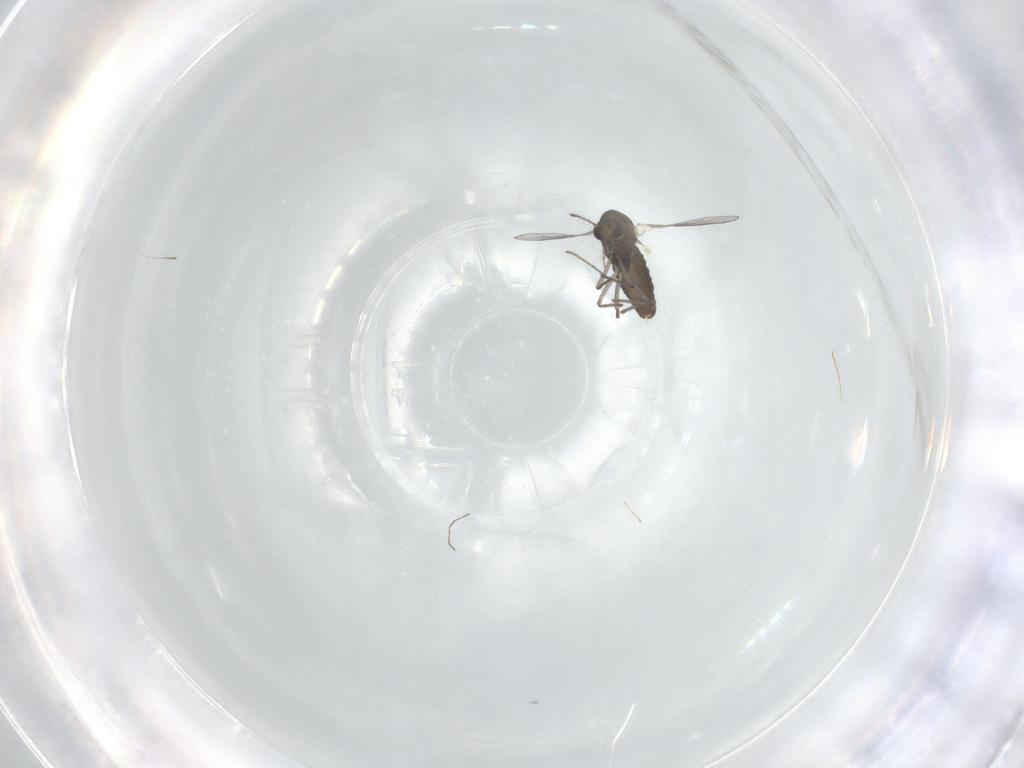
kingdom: Animalia
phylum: Arthropoda
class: Insecta
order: Diptera
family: Chironomidae
